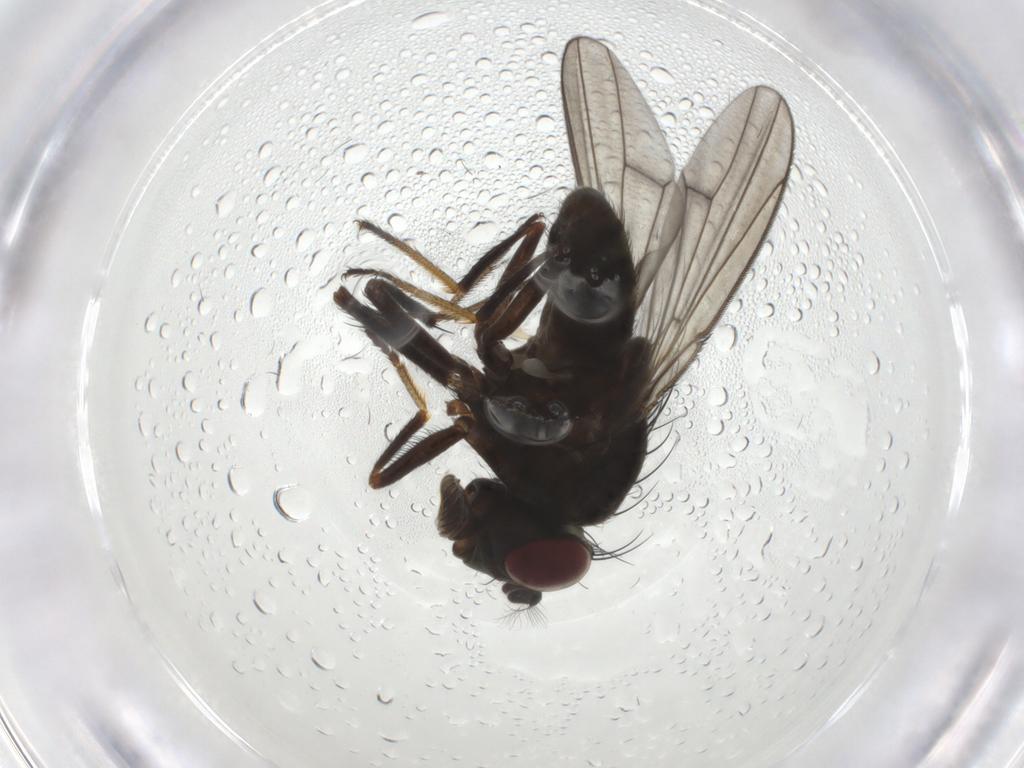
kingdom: Animalia
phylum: Arthropoda
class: Insecta
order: Diptera
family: Ephydridae
